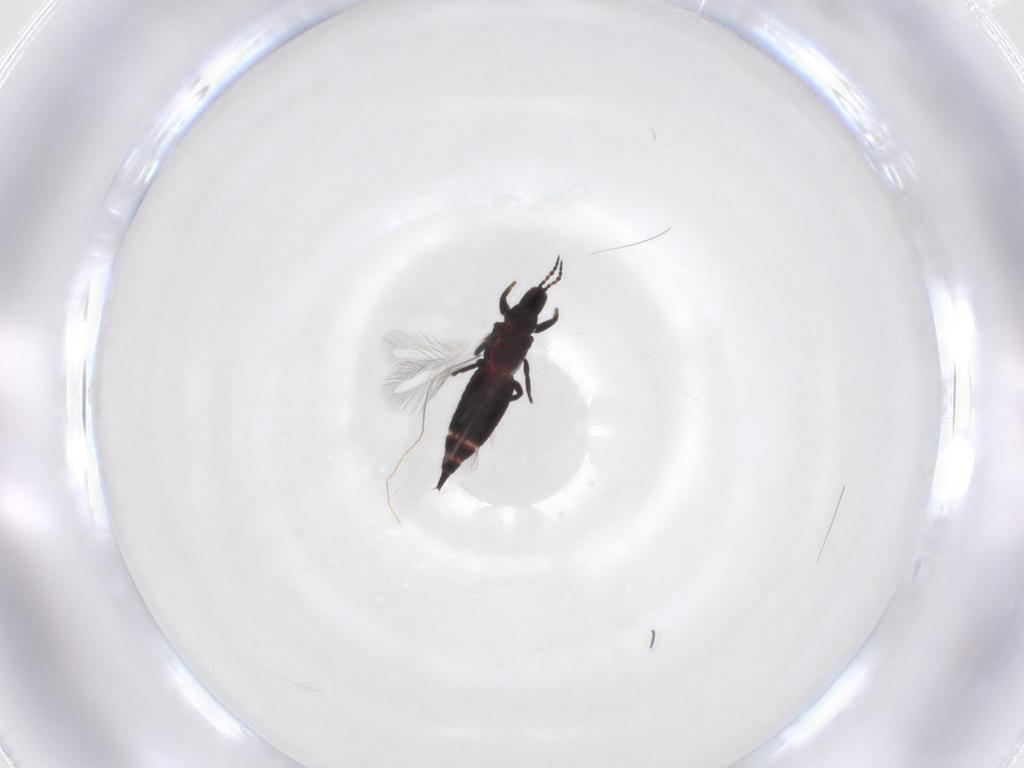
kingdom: Animalia
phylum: Arthropoda
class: Insecta
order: Thysanoptera
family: Phlaeothripidae
